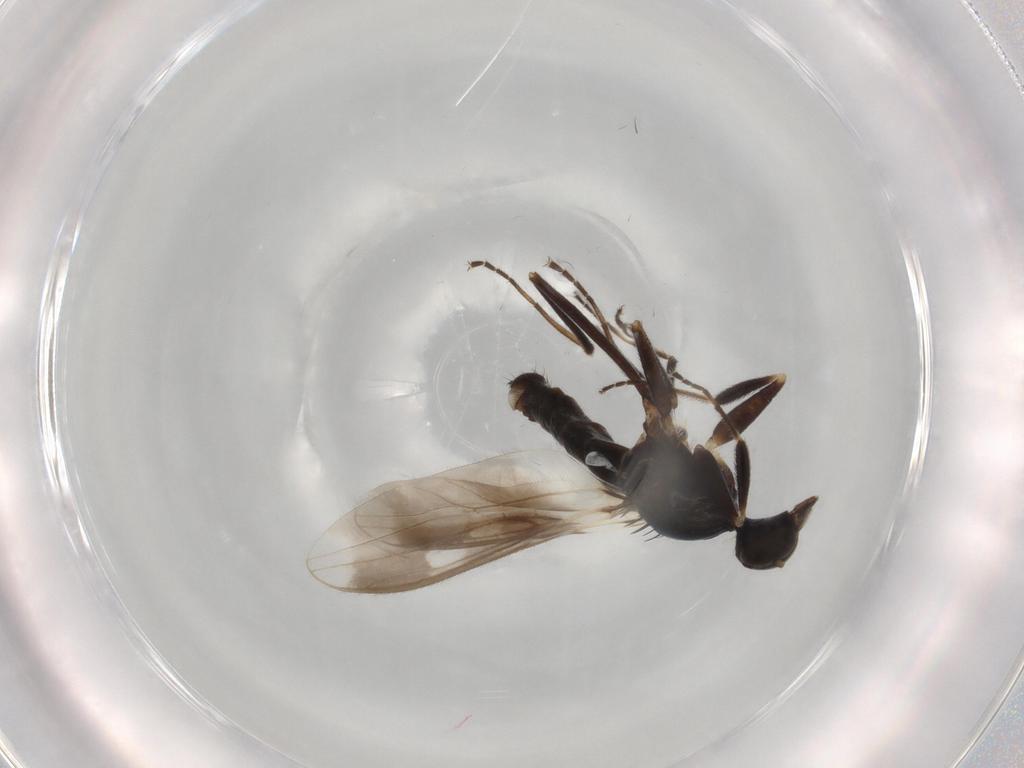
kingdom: Animalia
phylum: Arthropoda
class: Insecta
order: Diptera
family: Hybotidae
